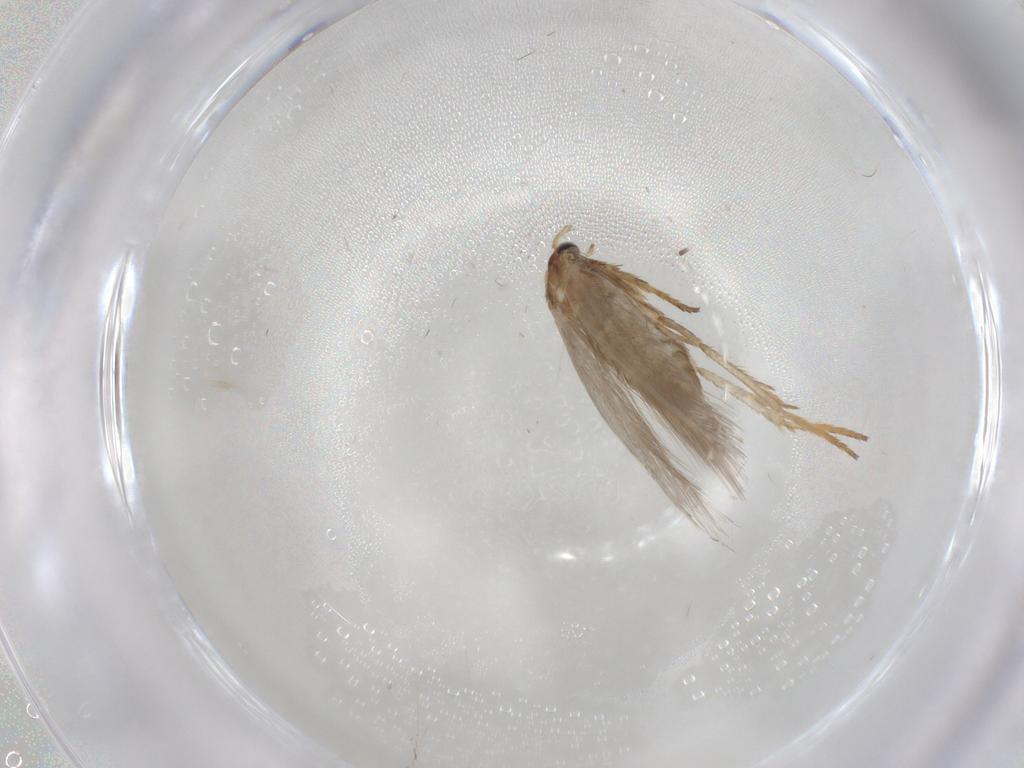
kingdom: Animalia
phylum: Arthropoda
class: Insecta
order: Lepidoptera
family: Nepticulidae
